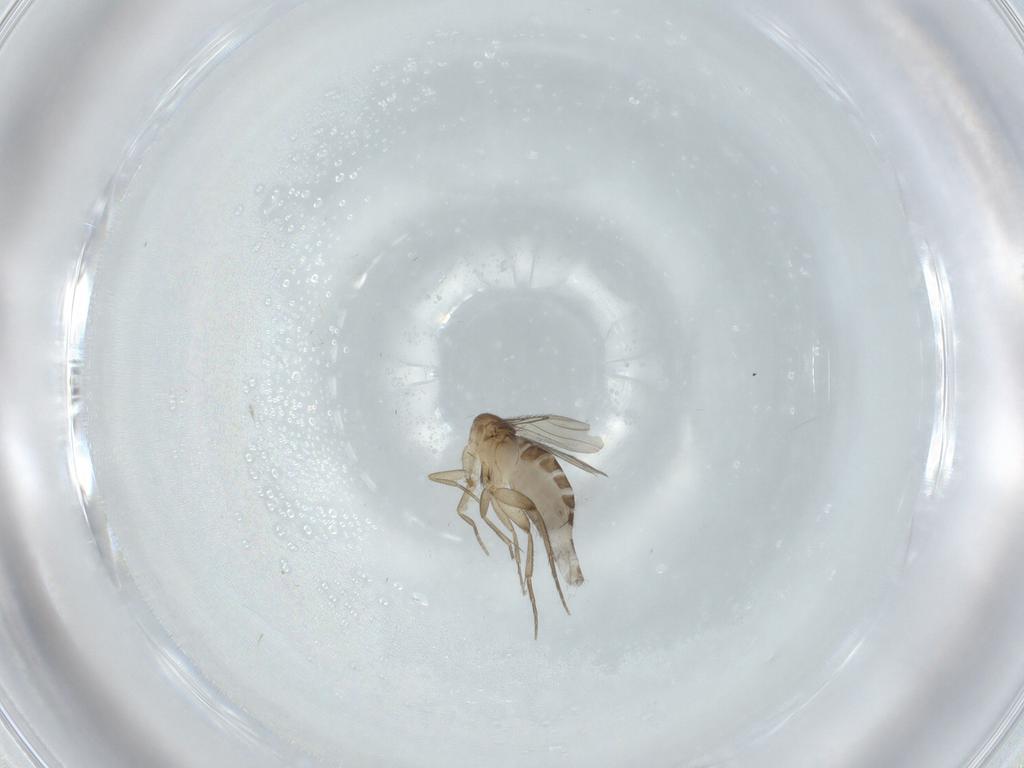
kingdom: Animalia
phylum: Arthropoda
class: Insecta
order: Diptera
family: Phoridae
